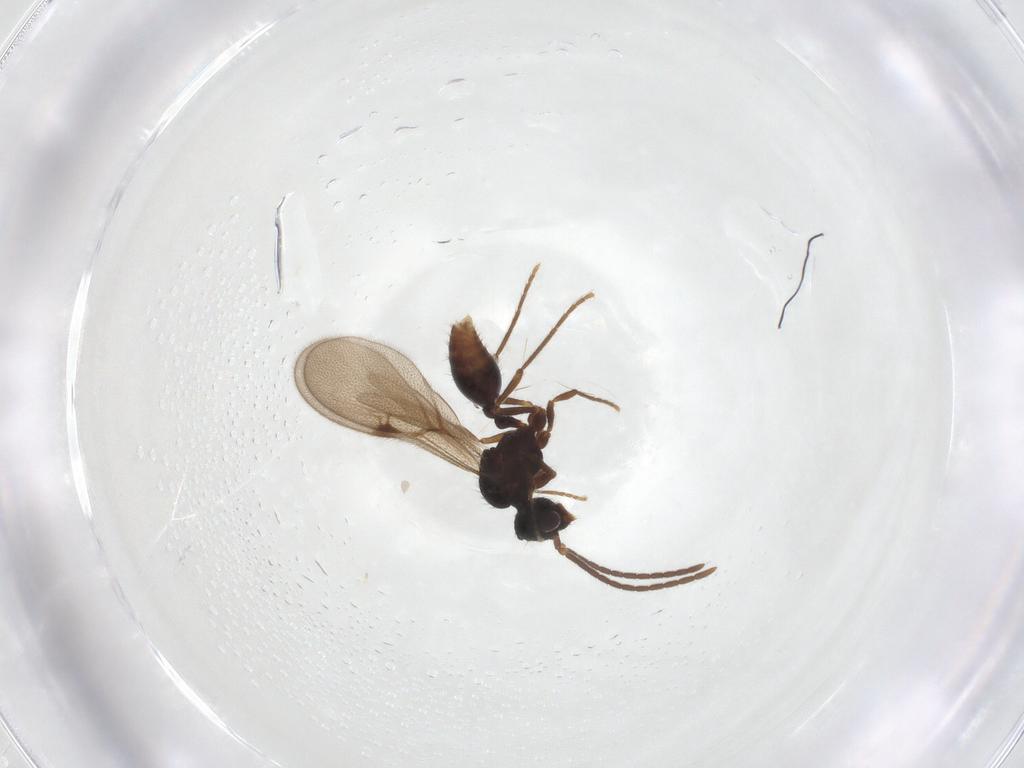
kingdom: Animalia
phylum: Arthropoda
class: Insecta
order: Hymenoptera
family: Formicidae
